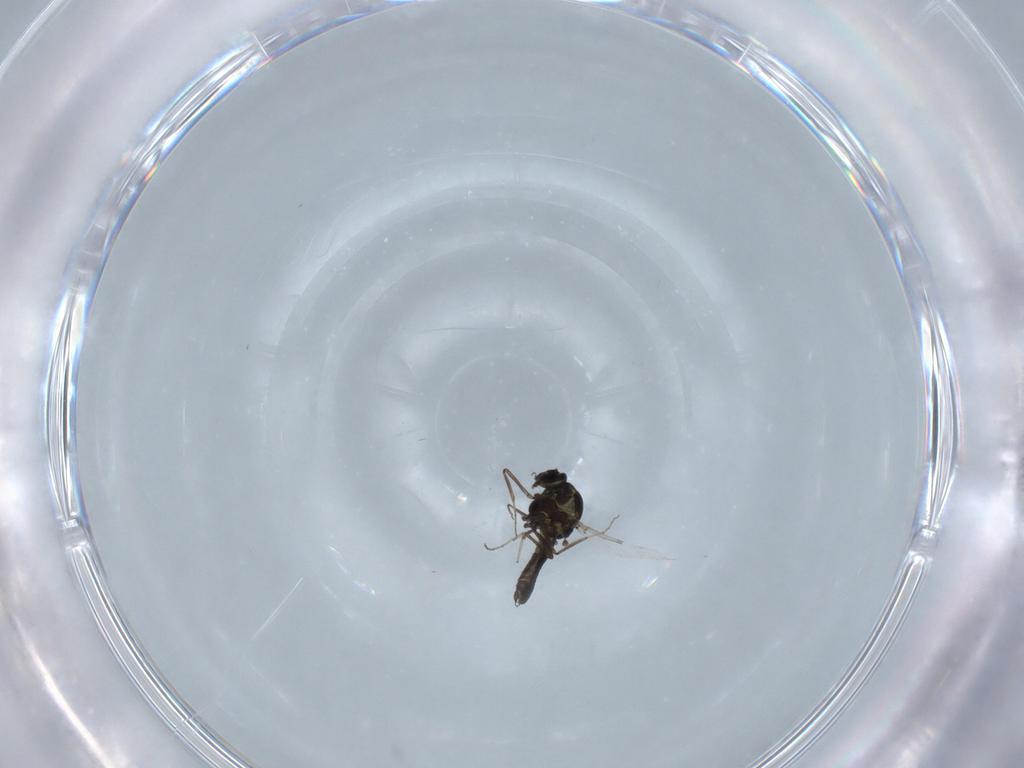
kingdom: Animalia
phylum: Arthropoda
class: Insecta
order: Diptera
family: Ceratopogonidae
